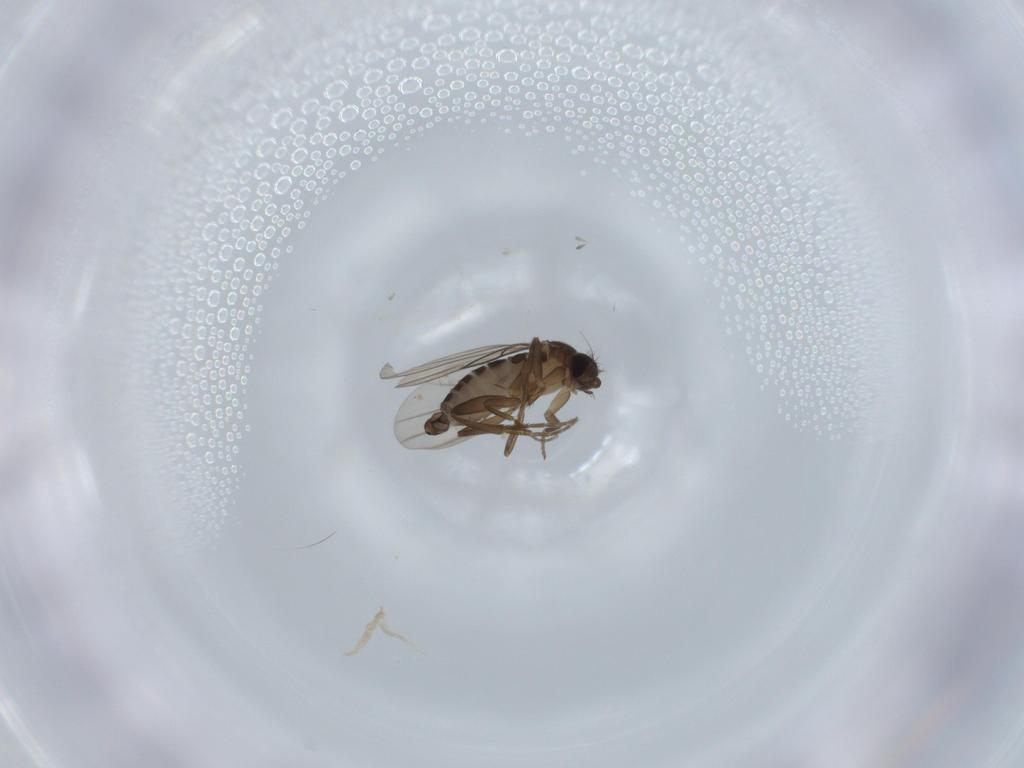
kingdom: Animalia
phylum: Arthropoda
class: Insecta
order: Diptera
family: Phoridae
